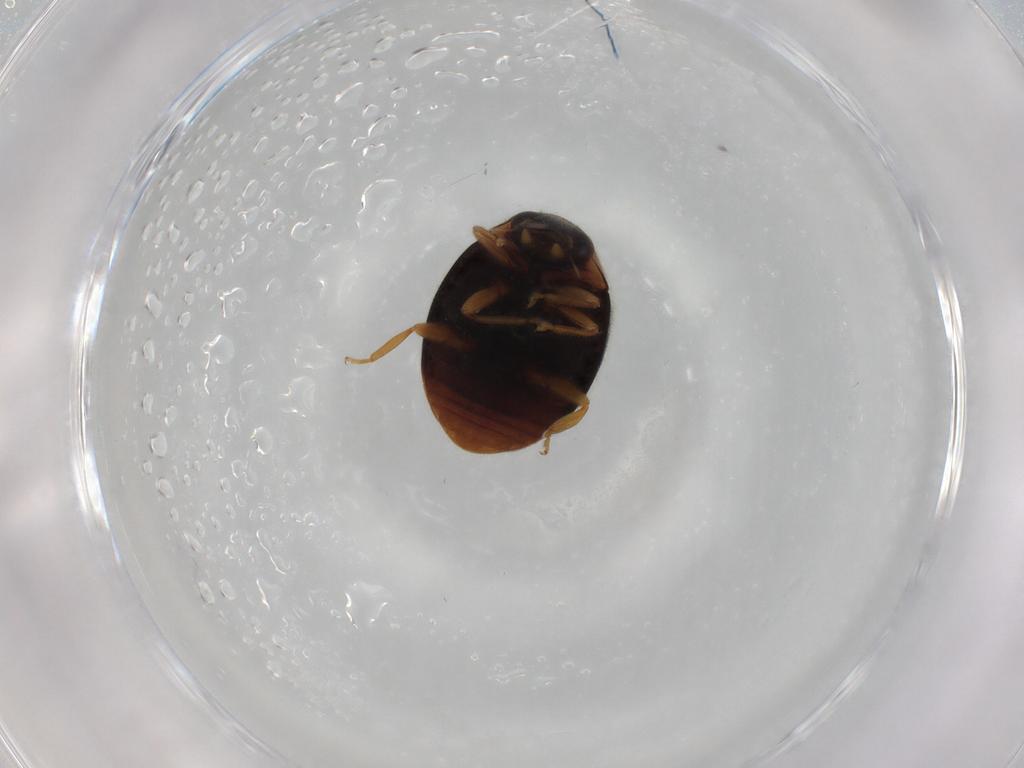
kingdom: Animalia
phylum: Arthropoda
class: Insecta
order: Coleoptera
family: Coccinellidae
